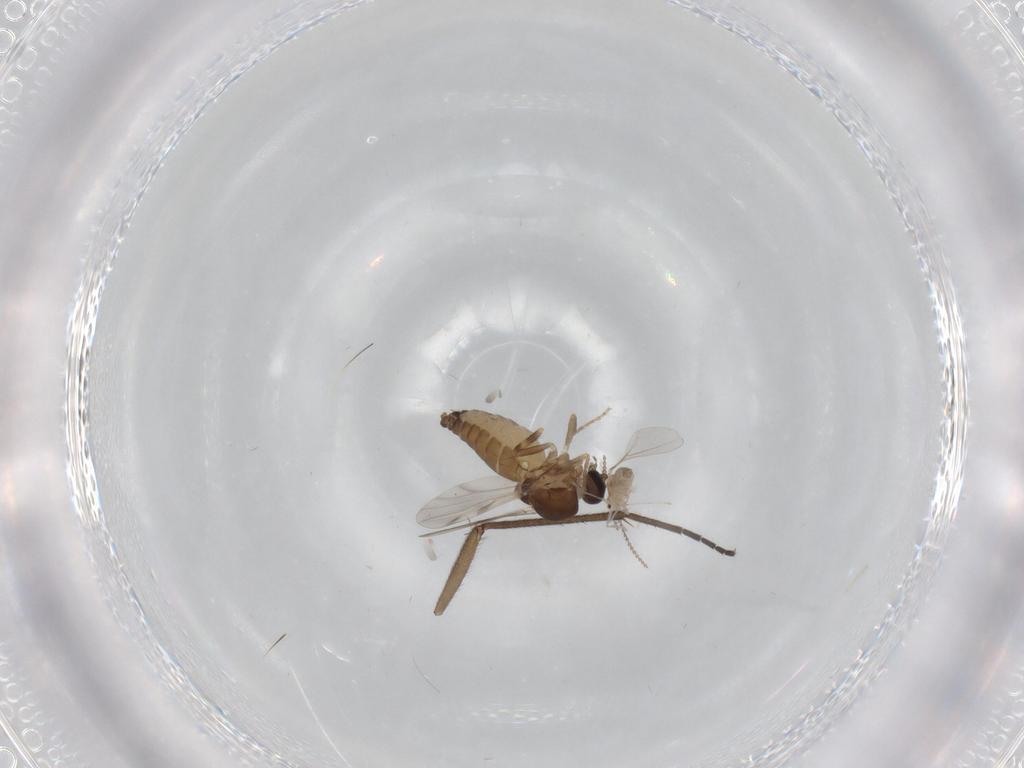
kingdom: Animalia
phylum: Arthropoda
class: Insecta
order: Diptera
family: Ceratopogonidae
